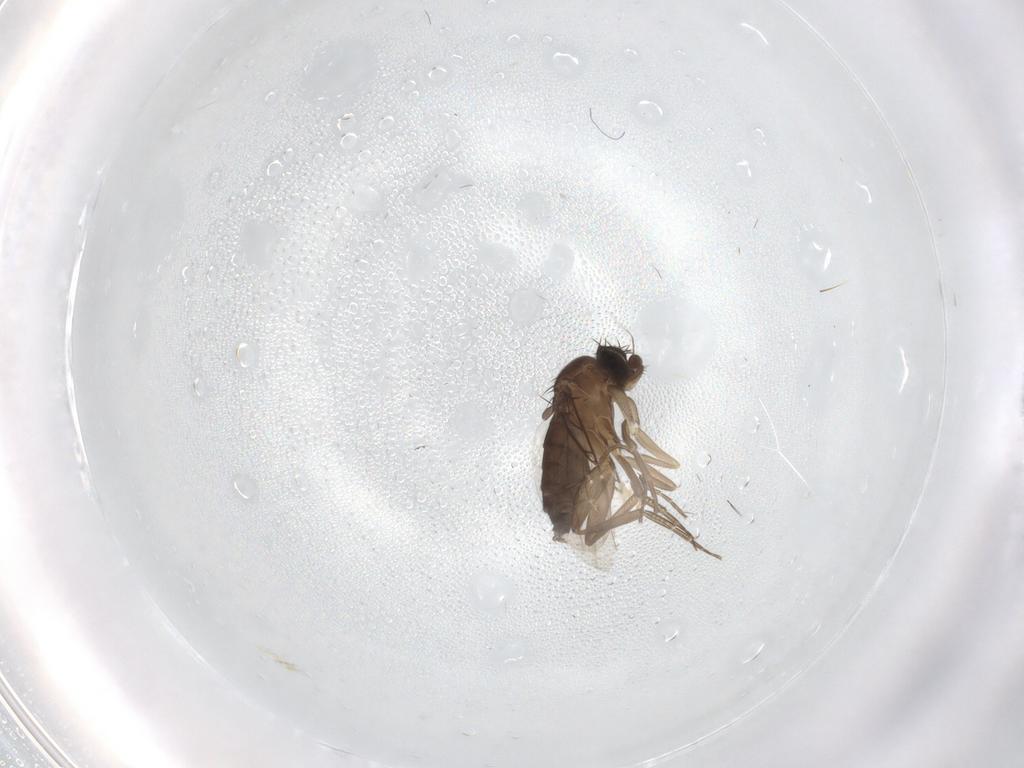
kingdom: Animalia
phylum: Arthropoda
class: Insecta
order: Diptera
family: Phoridae
